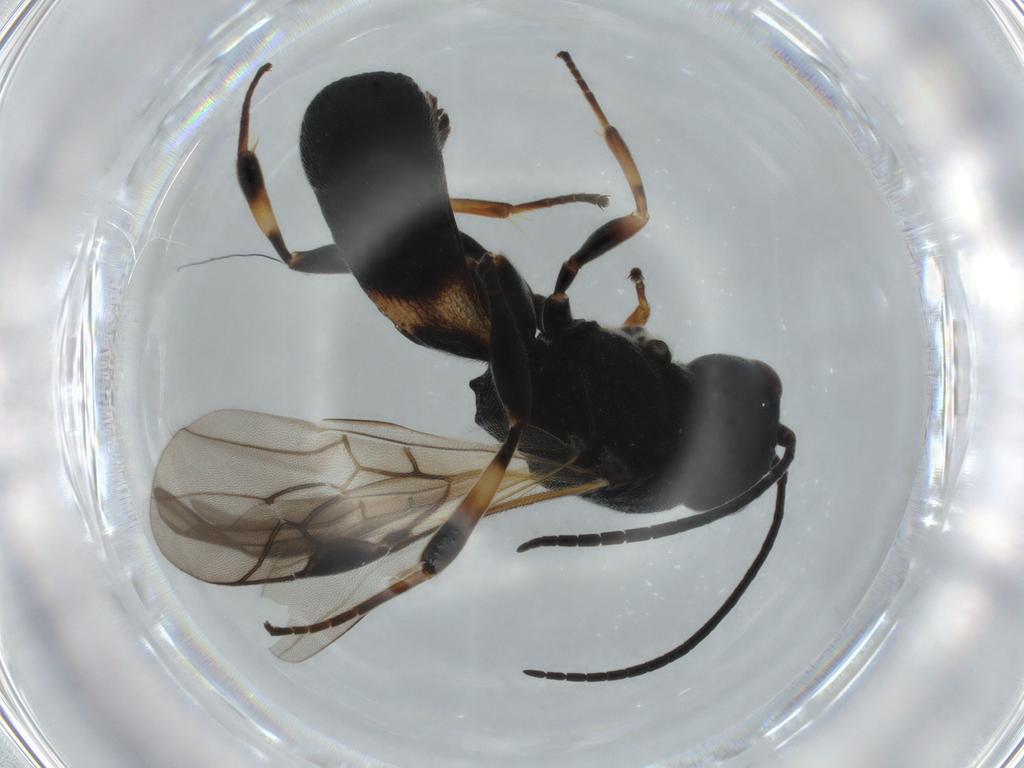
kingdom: Animalia
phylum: Arthropoda
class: Insecta
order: Hymenoptera
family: Braconidae
